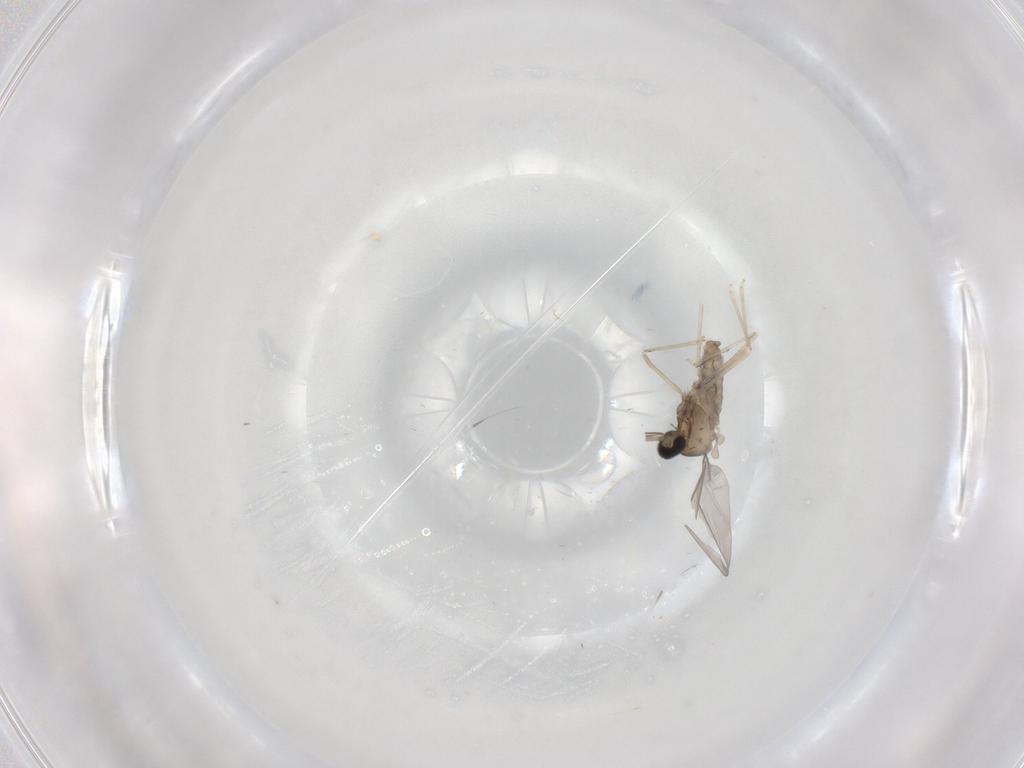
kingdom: Animalia
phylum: Arthropoda
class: Insecta
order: Diptera
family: Cecidomyiidae
